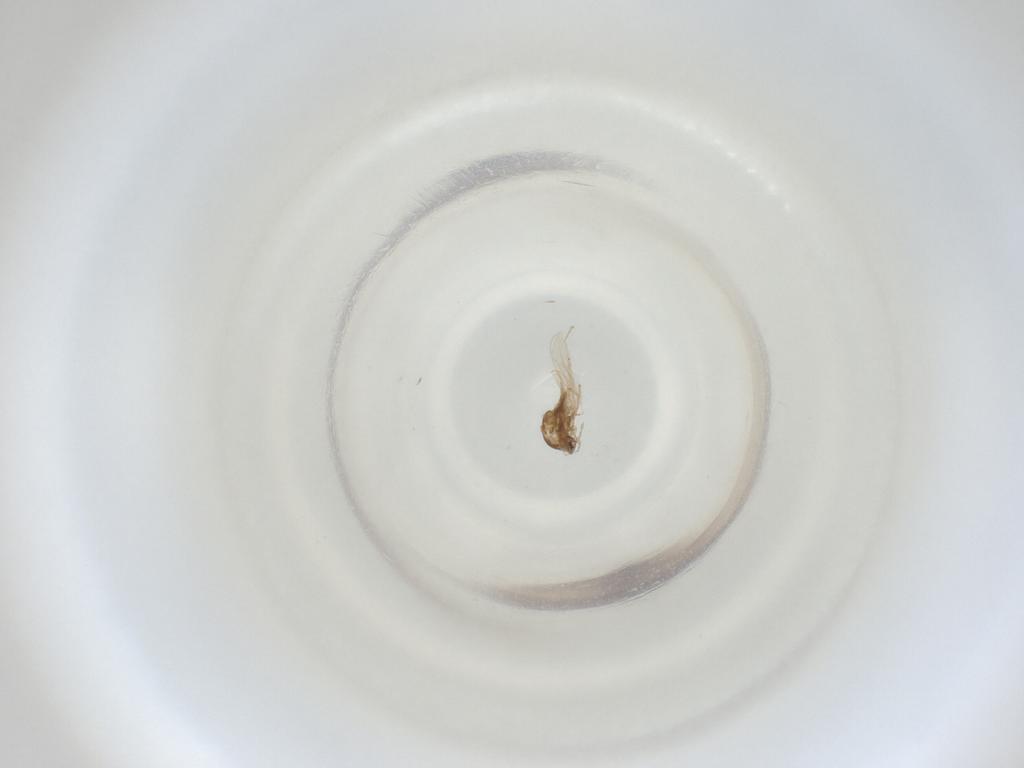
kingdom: Animalia
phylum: Arthropoda
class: Insecta
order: Diptera
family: Cecidomyiidae
